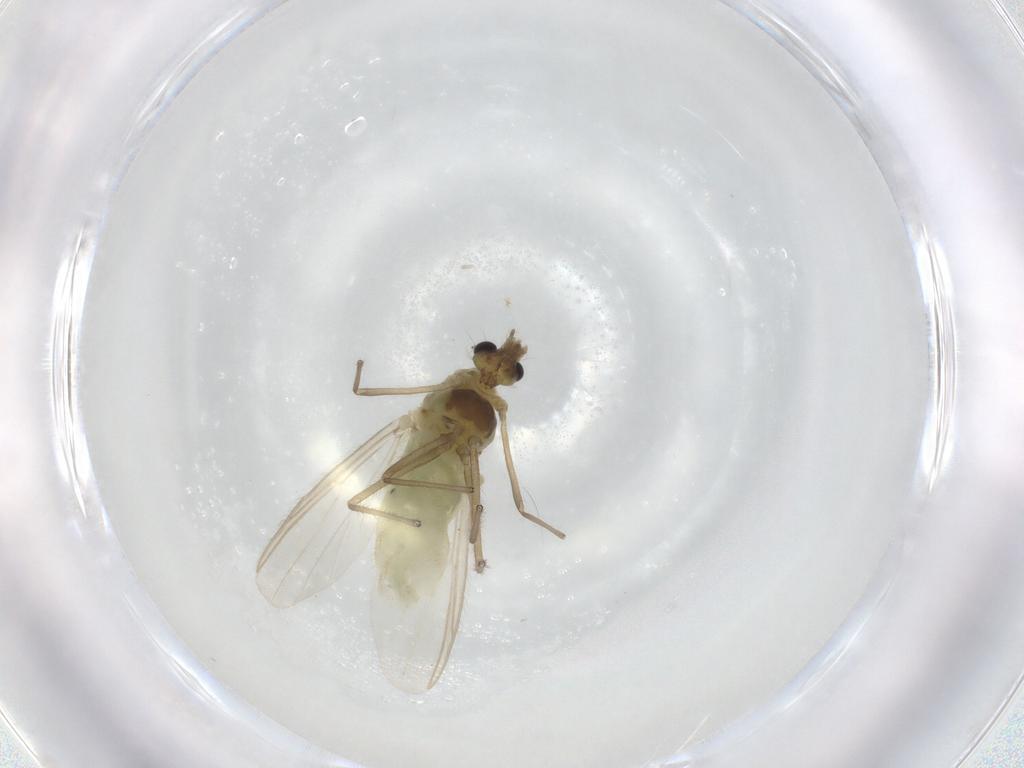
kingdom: Animalia
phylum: Arthropoda
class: Insecta
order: Diptera
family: Chironomidae
